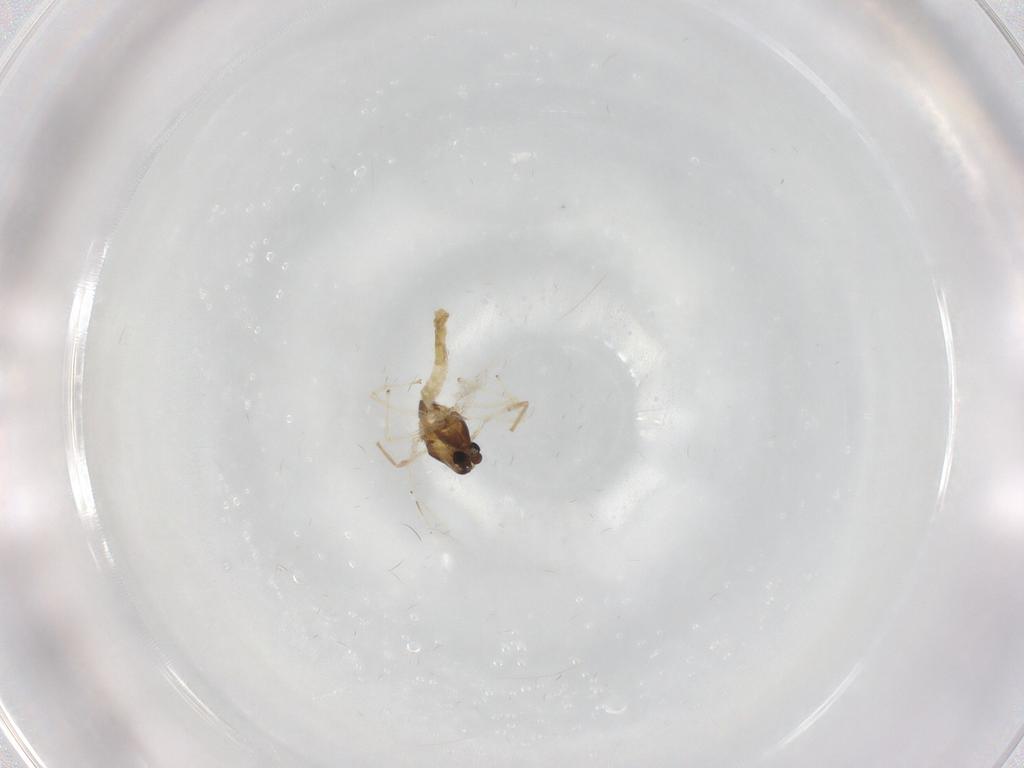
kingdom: Animalia
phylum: Arthropoda
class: Insecta
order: Diptera
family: Chironomidae
